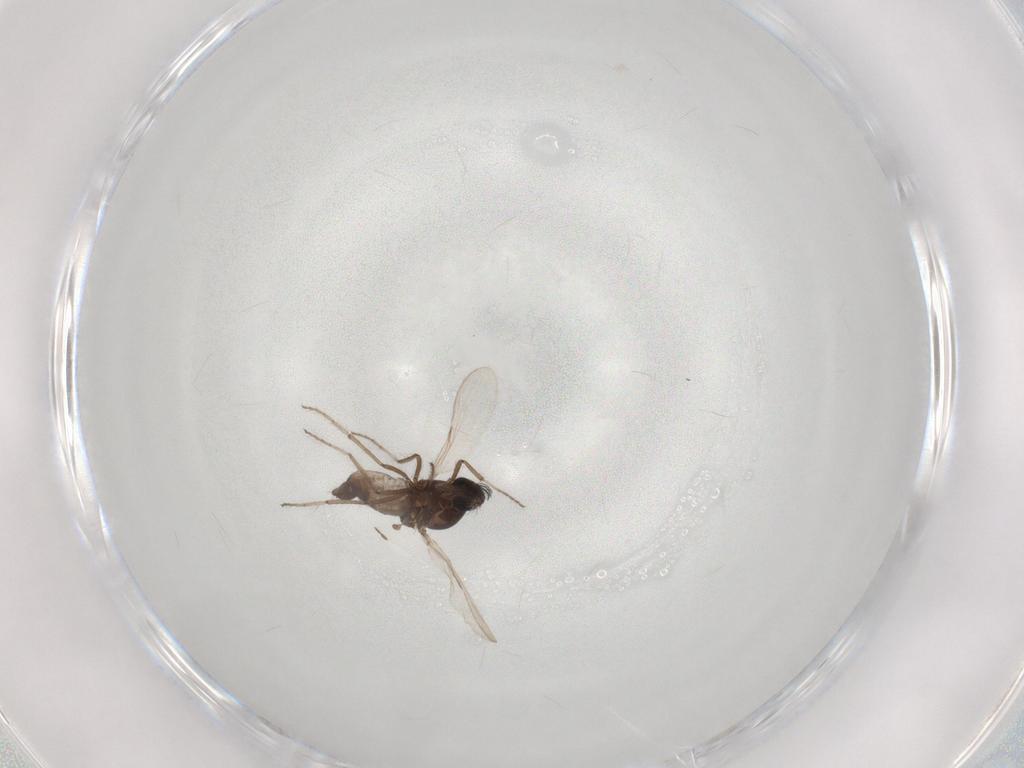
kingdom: Animalia
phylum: Arthropoda
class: Insecta
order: Diptera
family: Chironomidae
